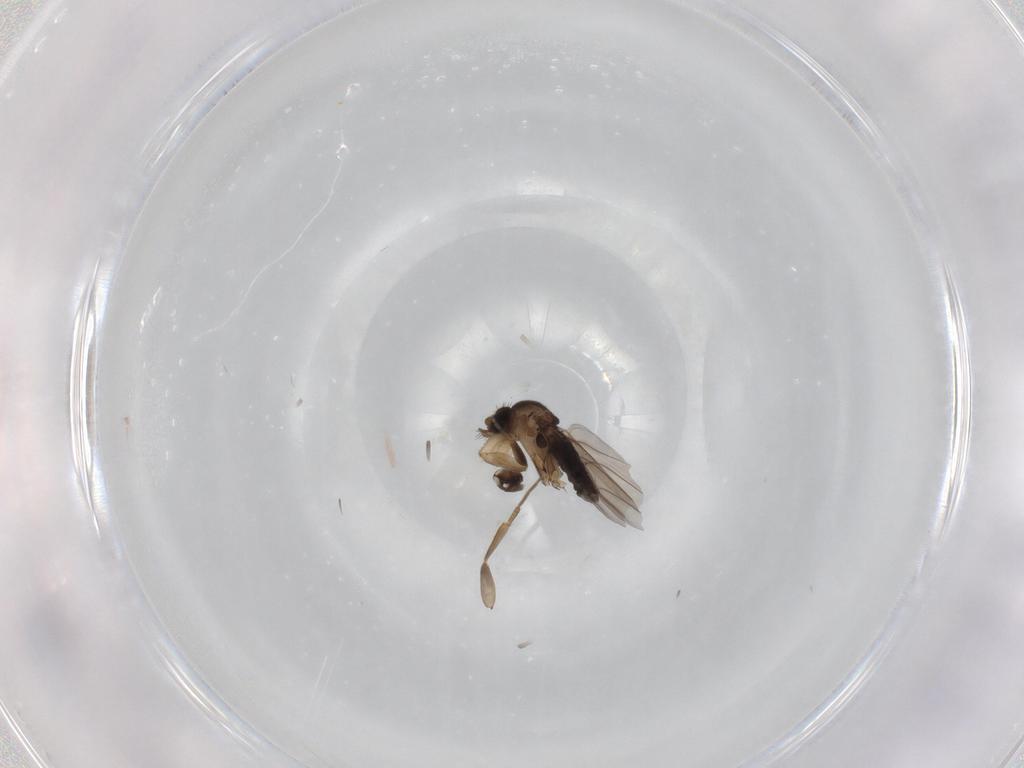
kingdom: Animalia
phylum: Arthropoda
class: Insecta
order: Diptera
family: Phoridae
